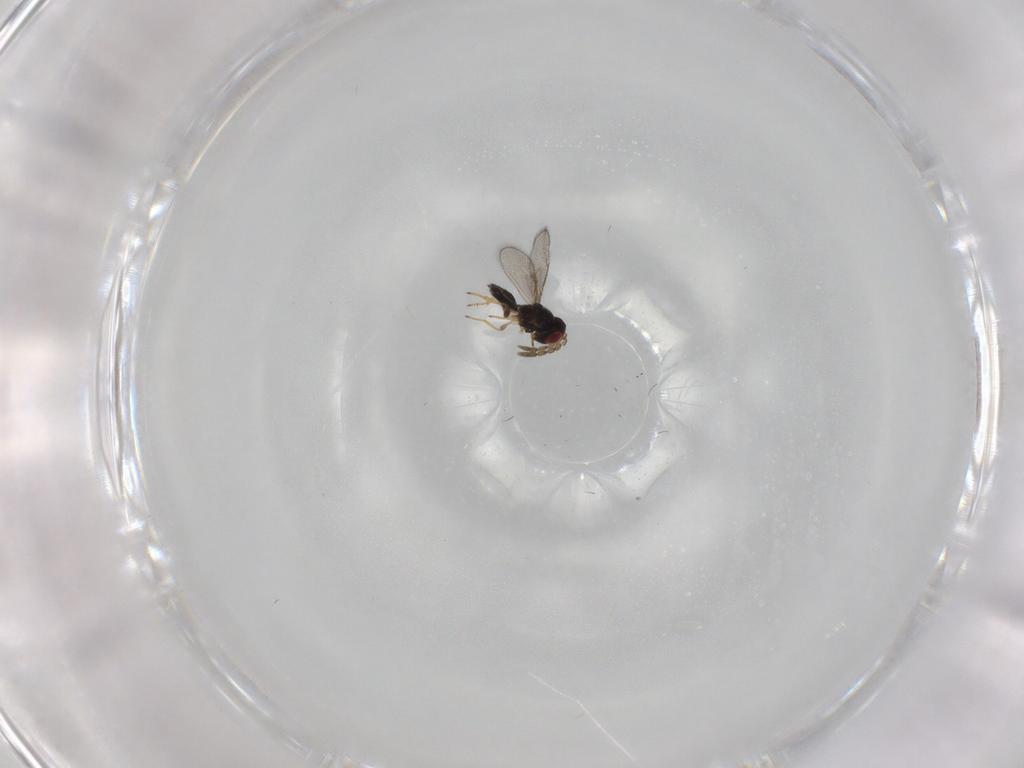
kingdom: Animalia
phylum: Arthropoda
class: Insecta
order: Hymenoptera
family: Eulophidae
